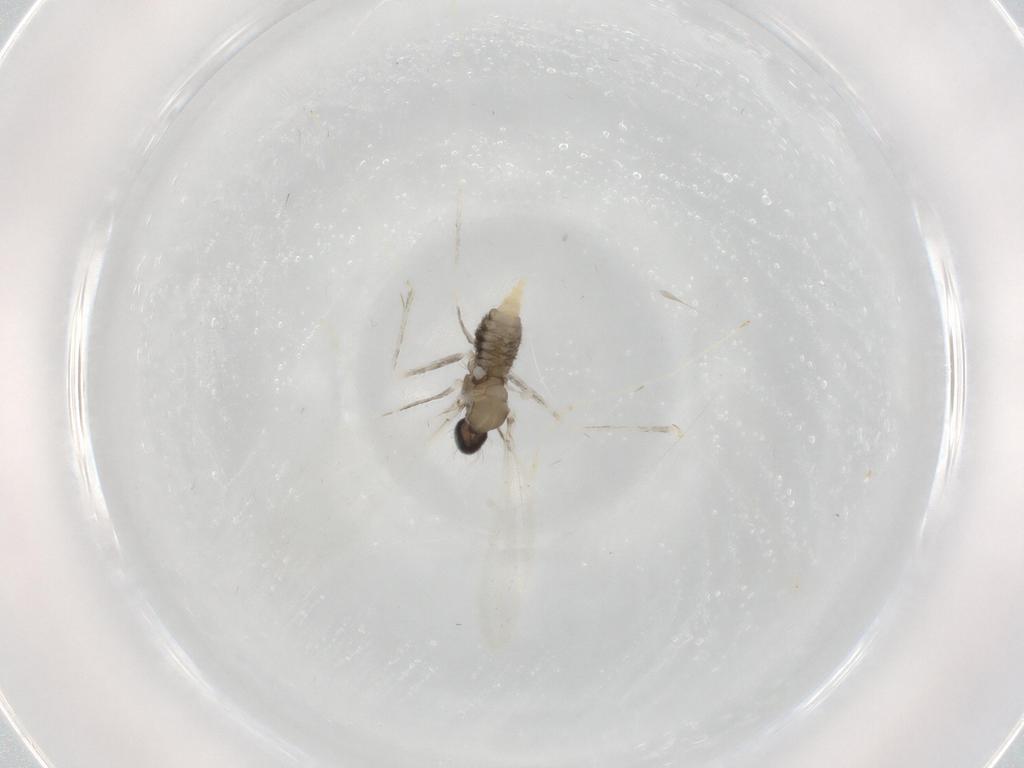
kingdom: Animalia
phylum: Arthropoda
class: Insecta
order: Diptera
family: Cecidomyiidae
